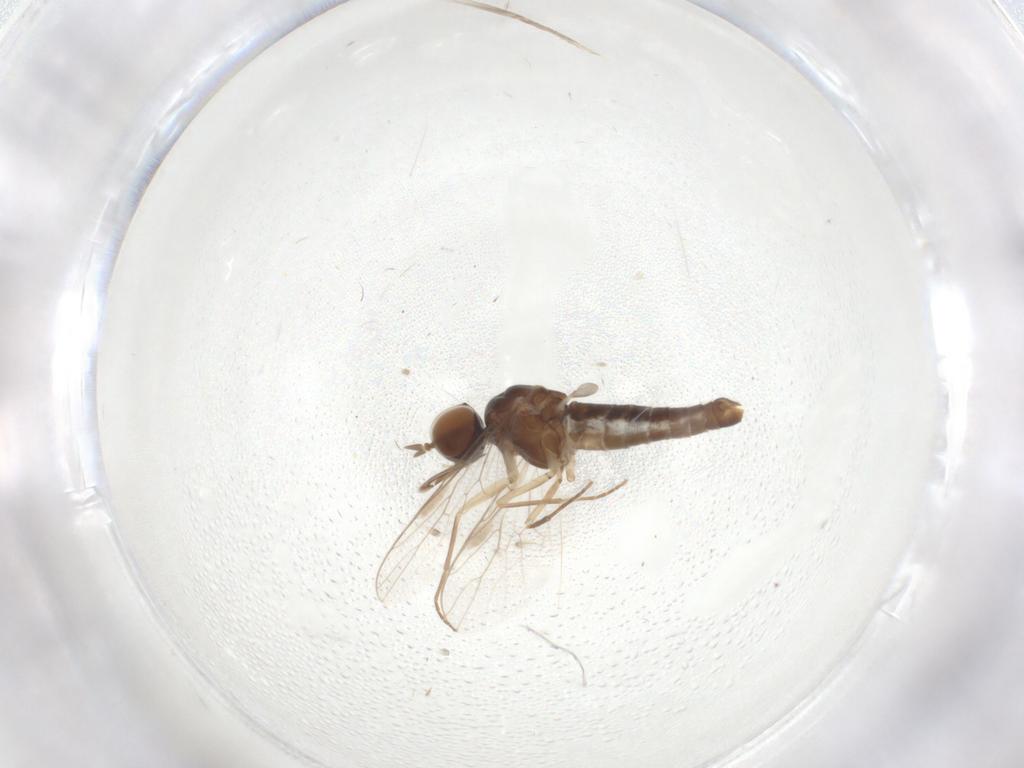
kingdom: Animalia
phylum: Arthropoda
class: Insecta
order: Diptera
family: Scenopinidae
